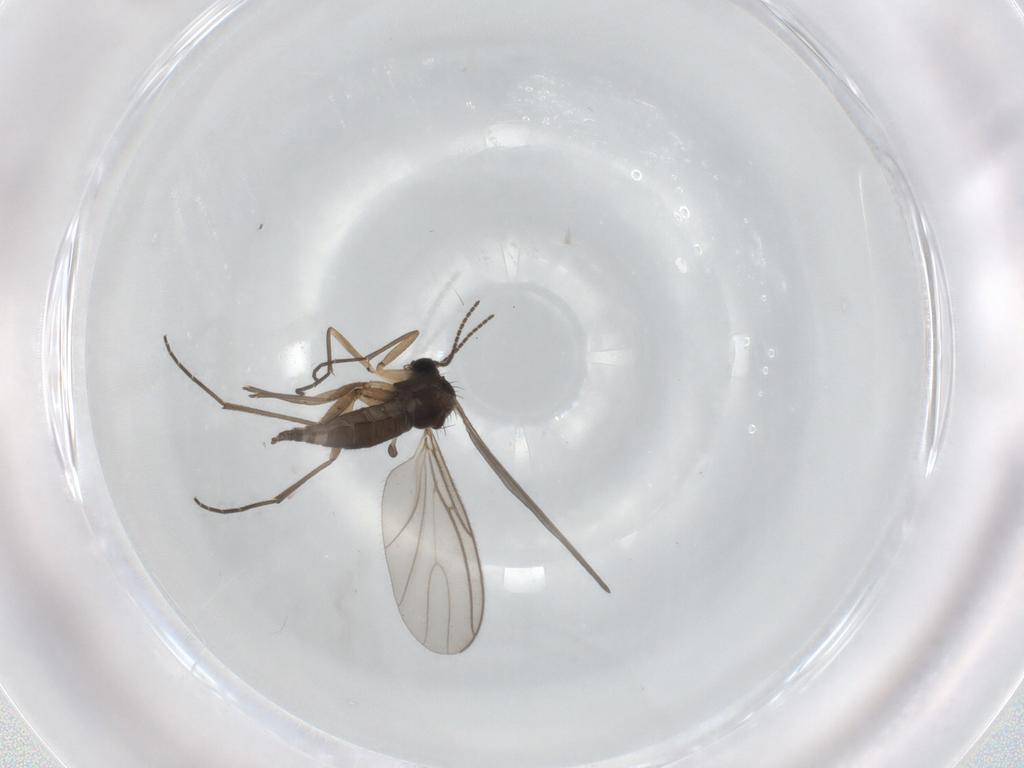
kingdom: Animalia
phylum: Arthropoda
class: Insecta
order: Diptera
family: Sciaridae
